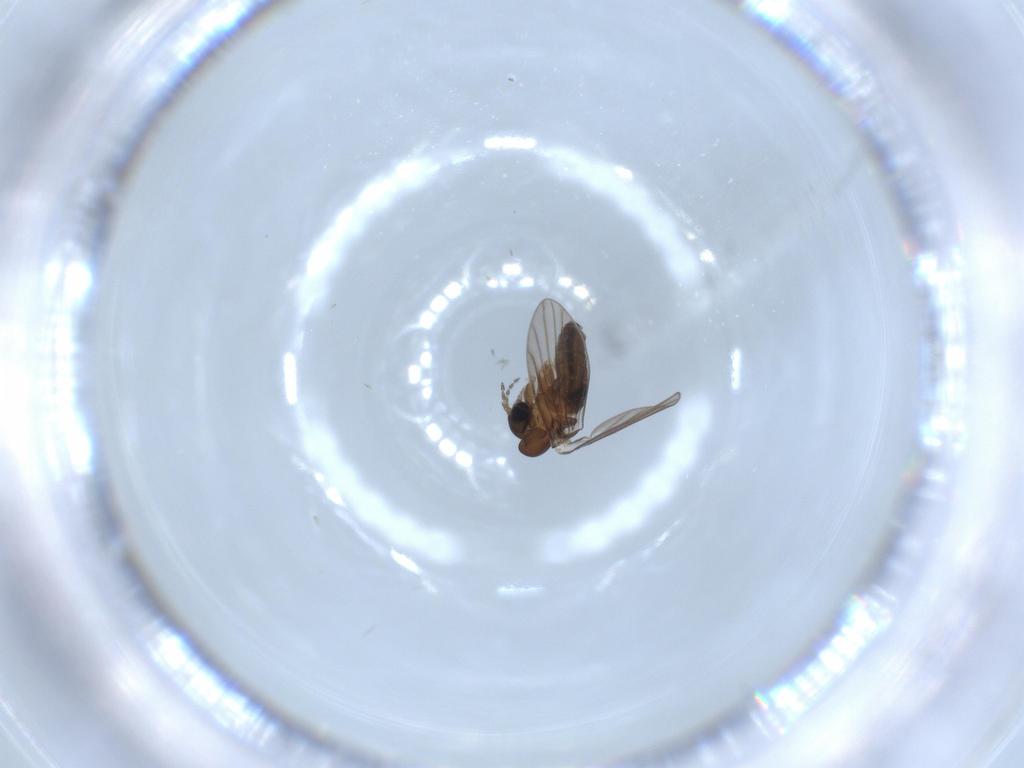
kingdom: Animalia
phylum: Arthropoda
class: Insecta
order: Diptera
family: Psychodidae
